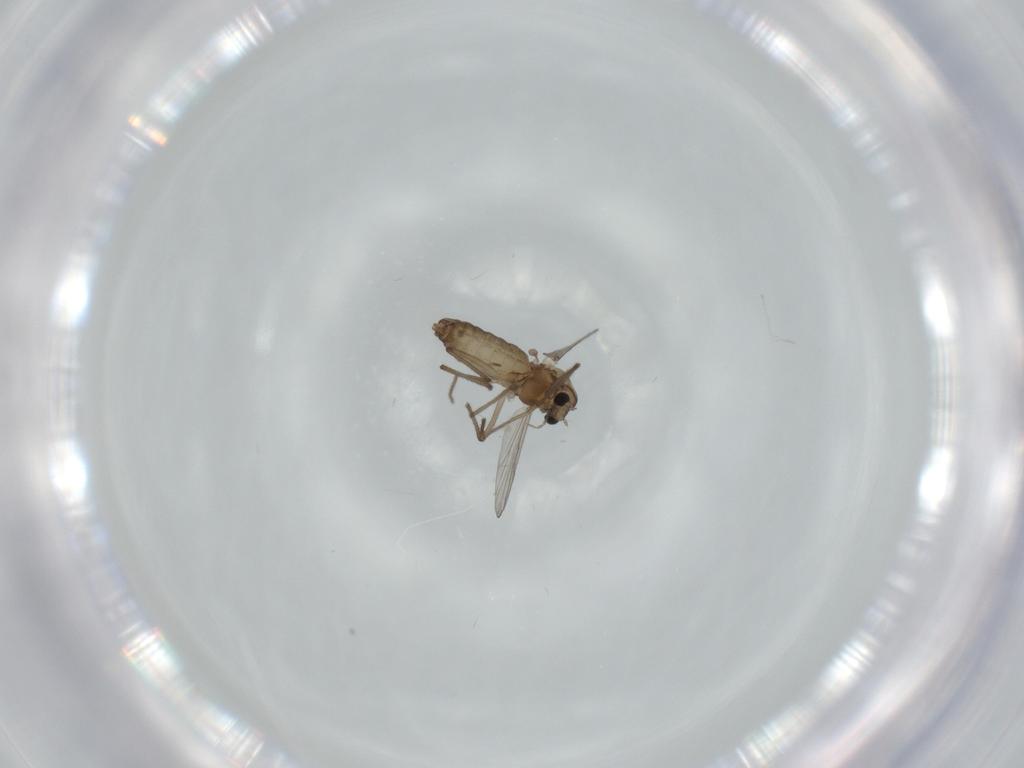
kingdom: Animalia
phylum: Arthropoda
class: Insecta
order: Diptera
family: Chironomidae
